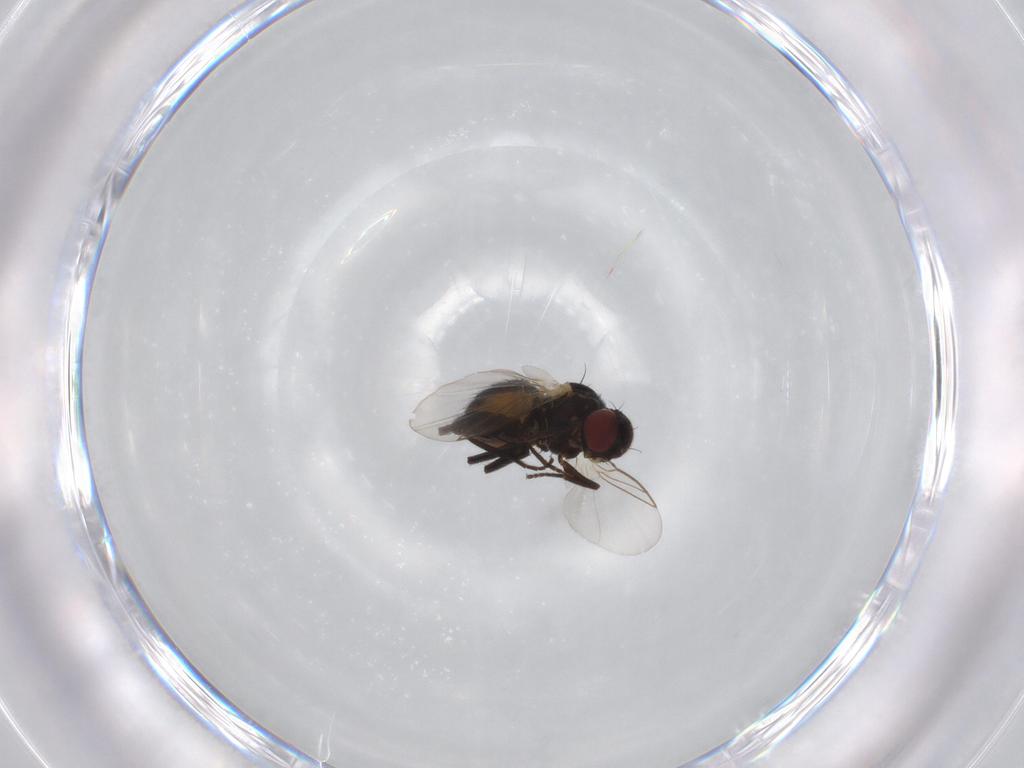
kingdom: Animalia
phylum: Arthropoda
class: Insecta
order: Diptera
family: Agromyzidae
